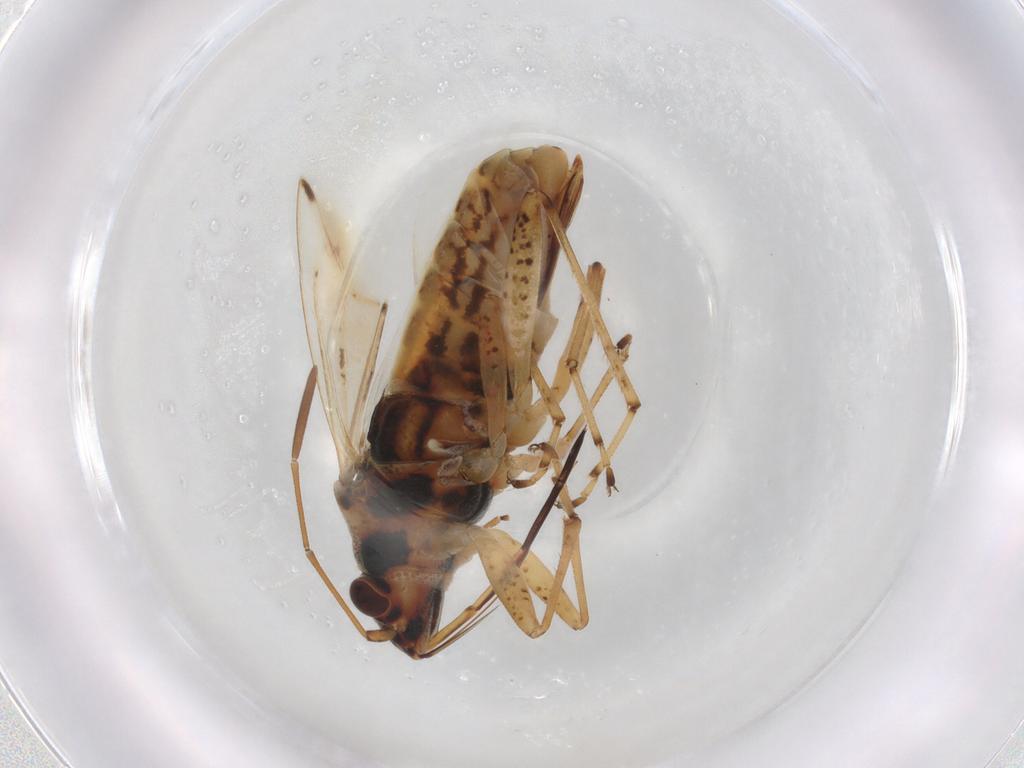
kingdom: Animalia
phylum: Arthropoda
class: Insecta
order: Hemiptera
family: Lygaeidae
